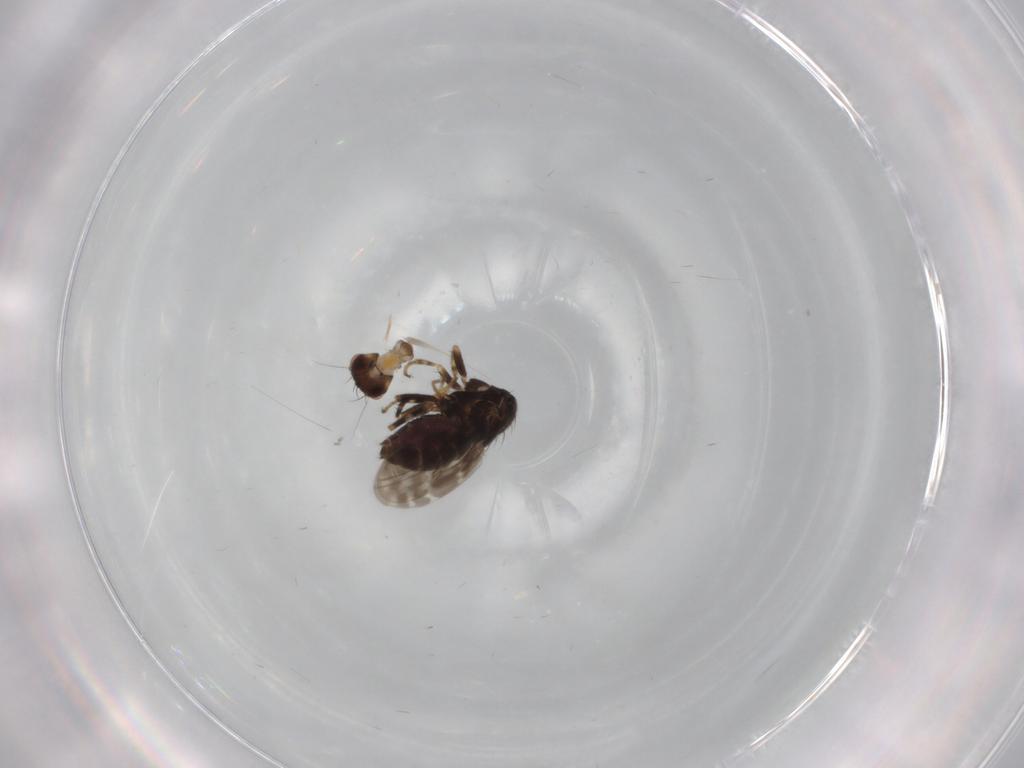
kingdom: Animalia
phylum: Arthropoda
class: Insecta
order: Diptera
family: Sphaeroceridae
